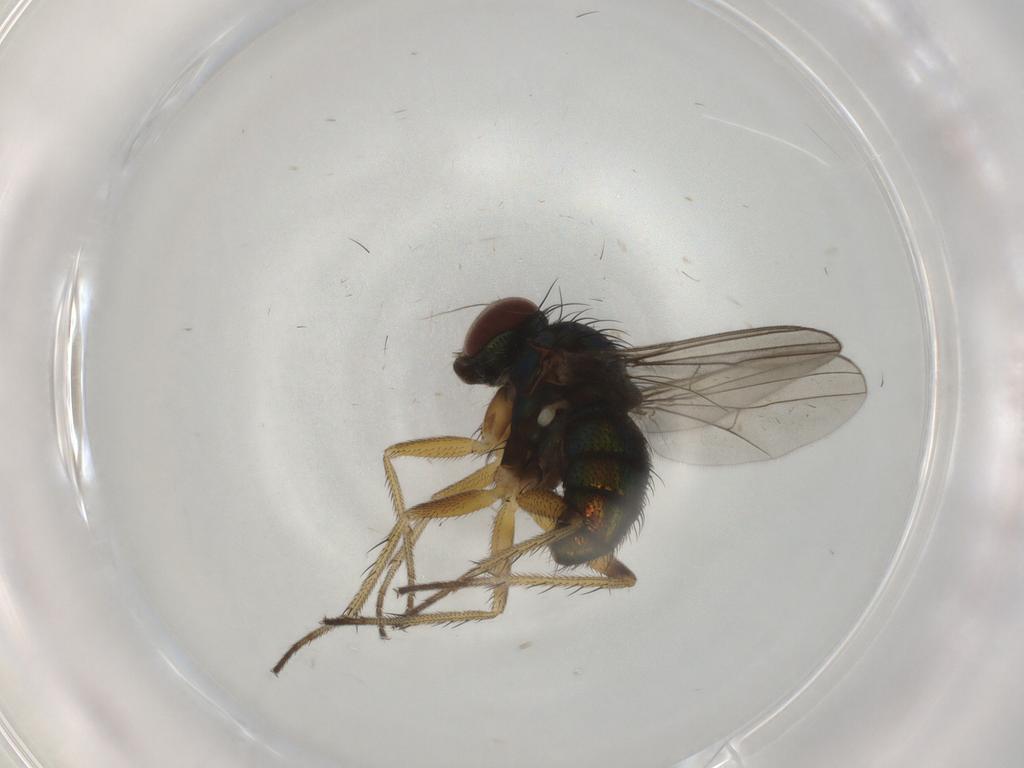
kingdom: Animalia
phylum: Arthropoda
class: Insecta
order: Diptera
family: Dolichopodidae
